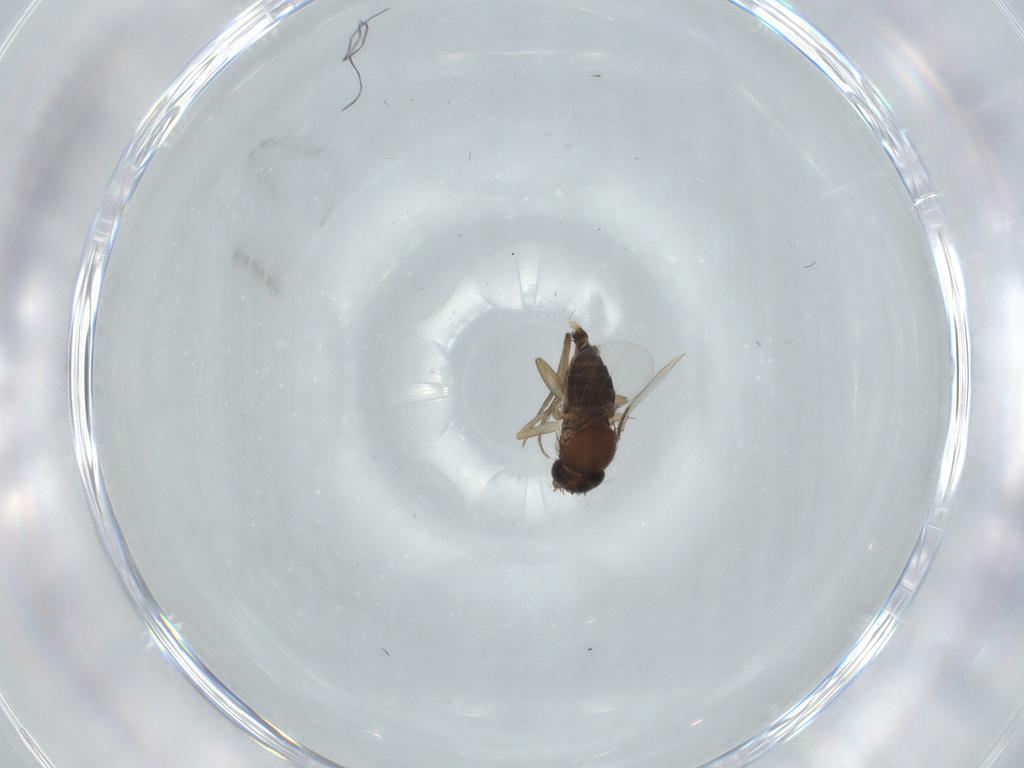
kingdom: Animalia
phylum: Arthropoda
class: Insecta
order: Diptera
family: Phoridae
